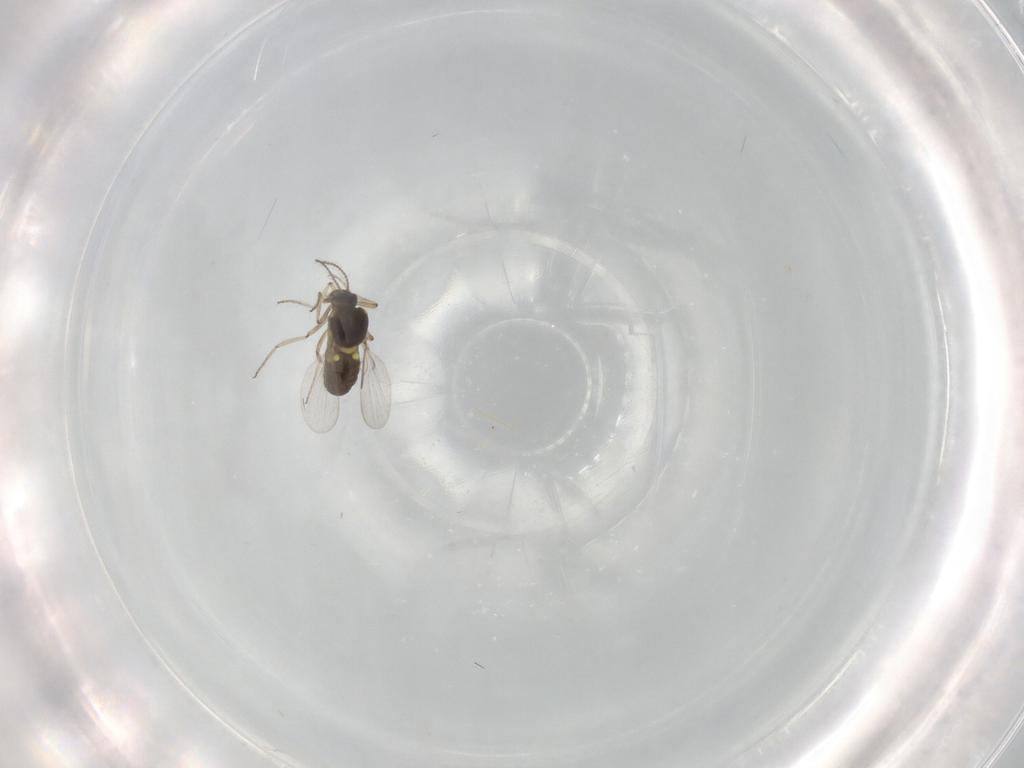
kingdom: Animalia
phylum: Arthropoda
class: Insecta
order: Diptera
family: Ceratopogonidae
